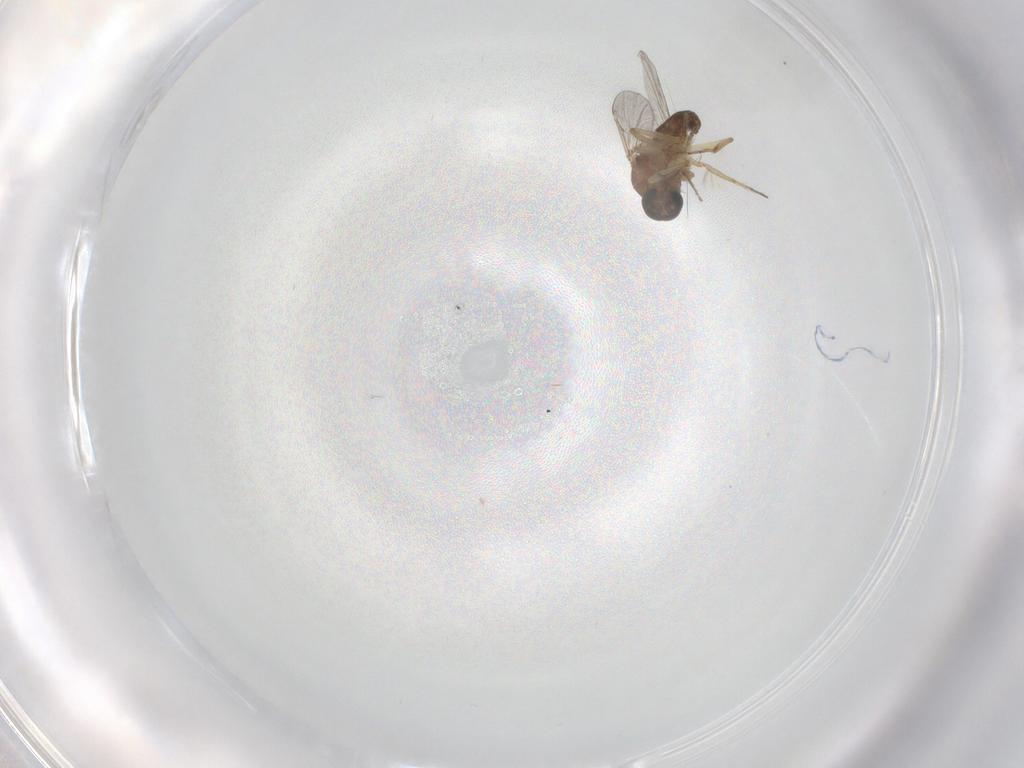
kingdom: Animalia
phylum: Arthropoda
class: Insecta
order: Diptera
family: Ceratopogonidae
